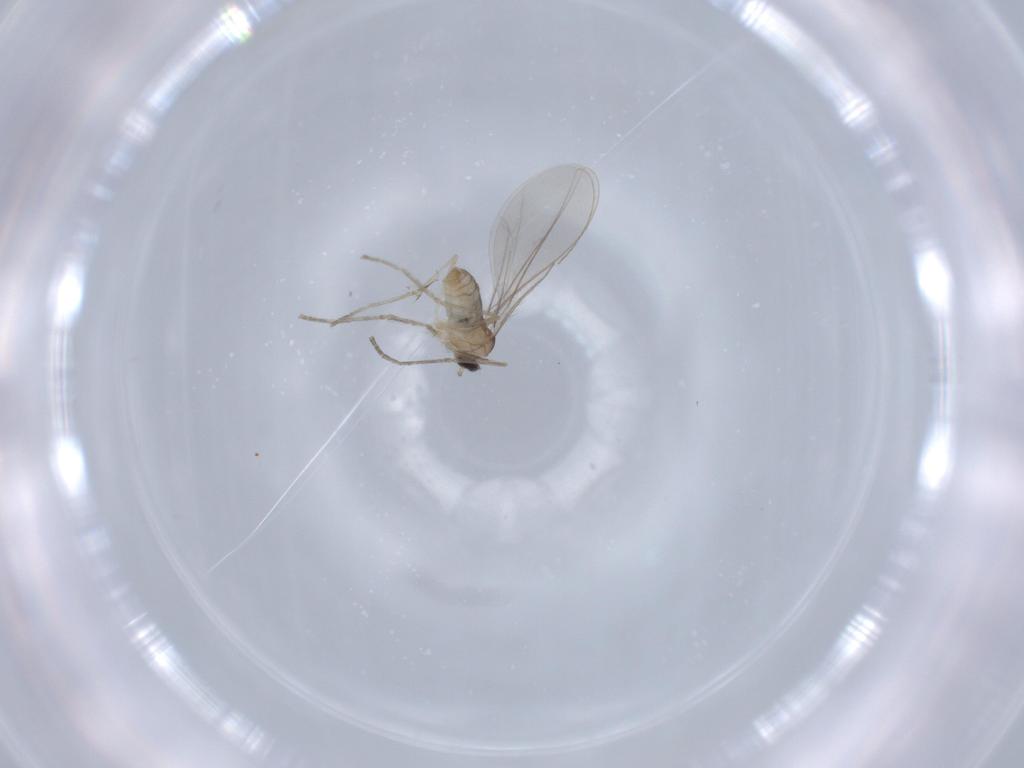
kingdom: Animalia
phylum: Arthropoda
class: Insecta
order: Diptera
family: Cecidomyiidae
